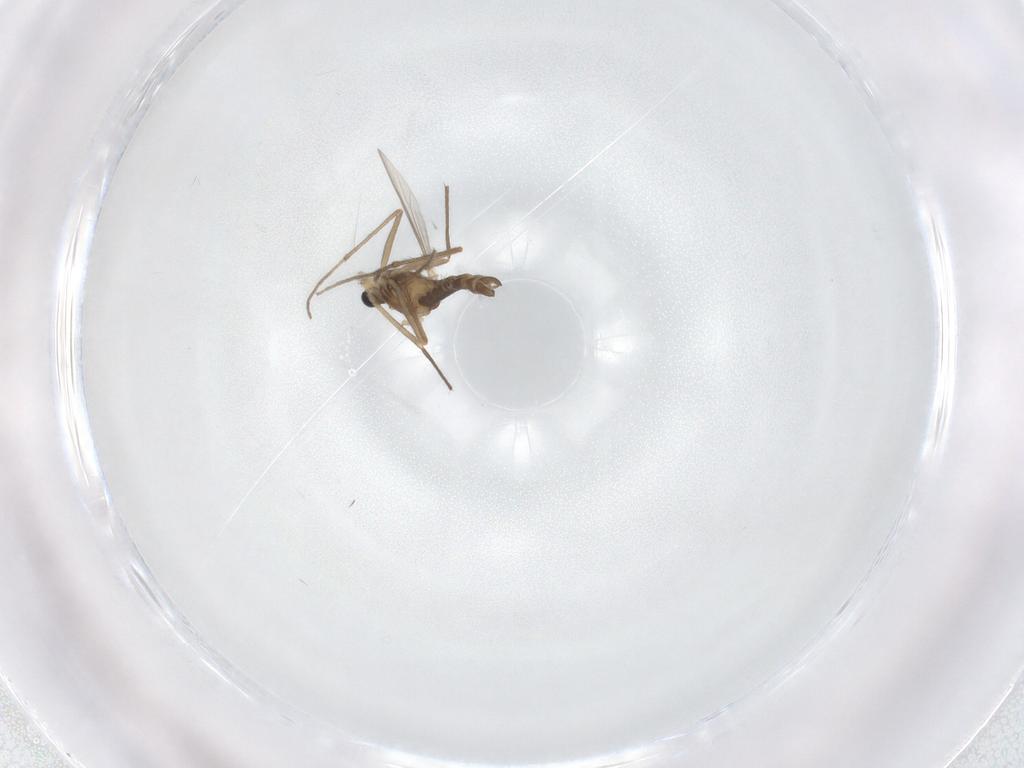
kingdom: Animalia
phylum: Arthropoda
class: Insecta
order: Diptera
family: Chironomidae
